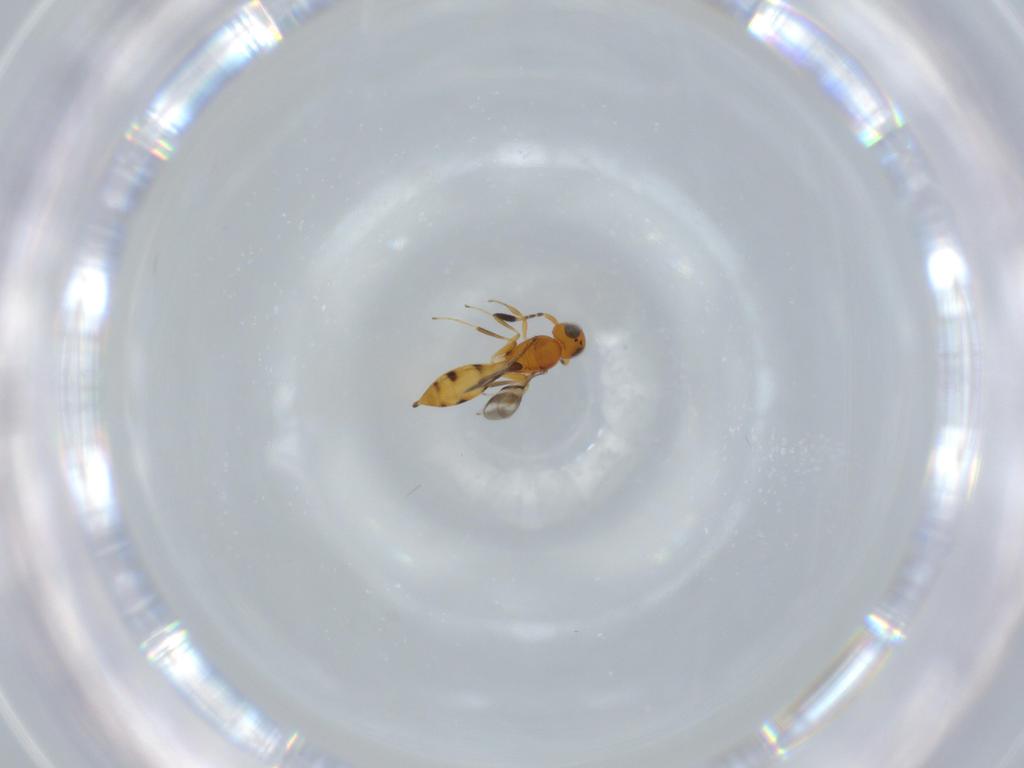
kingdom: Animalia
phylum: Arthropoda
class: Insecta
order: Hymenoptera
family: Scelionidae
